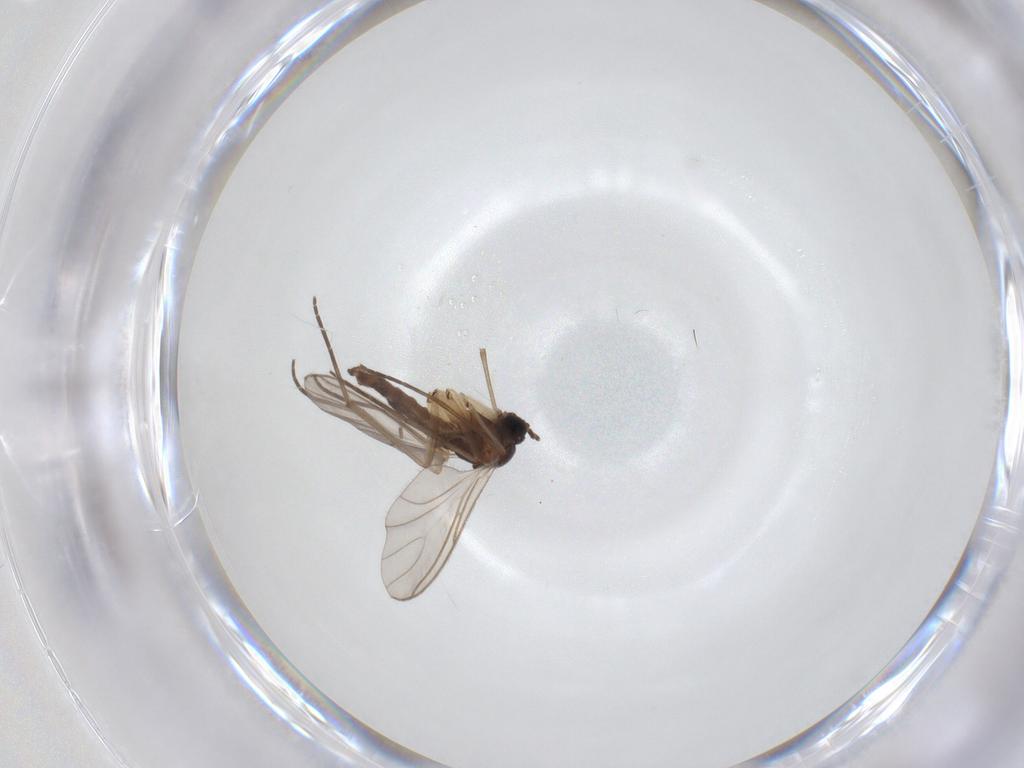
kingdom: Animalia
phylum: Arthropoda
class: Insecta
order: Diptera
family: Sciaridae
